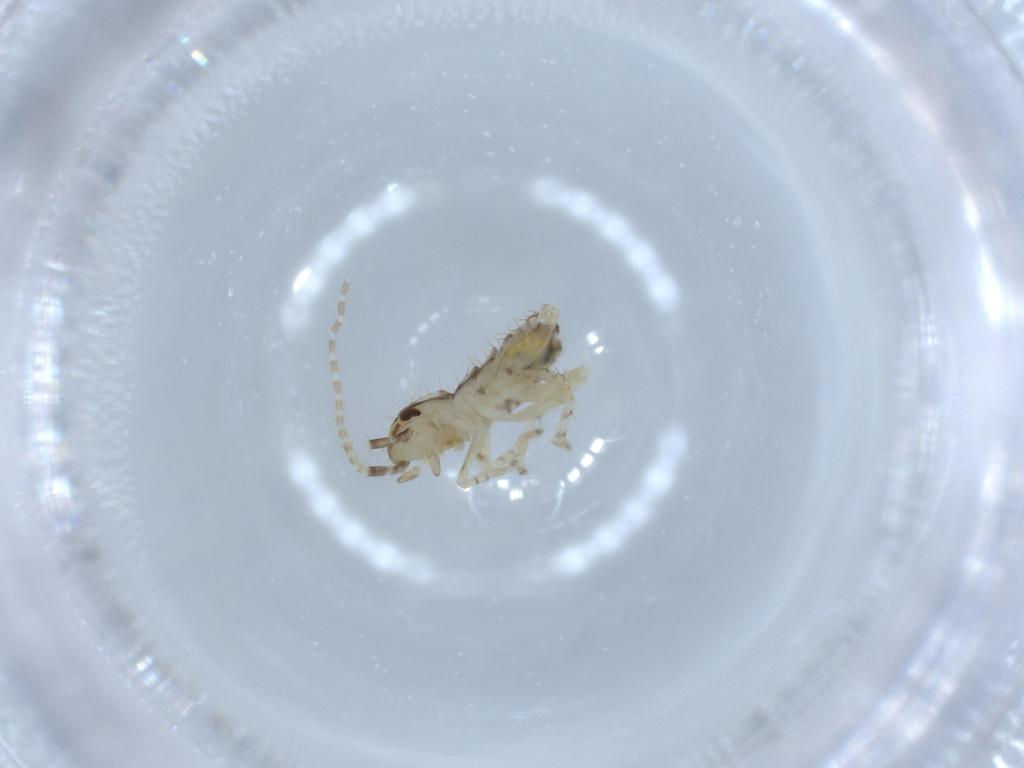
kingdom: Animalia
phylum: Arthropoda
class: Insecta
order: Blattodea
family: Ectobiidae
